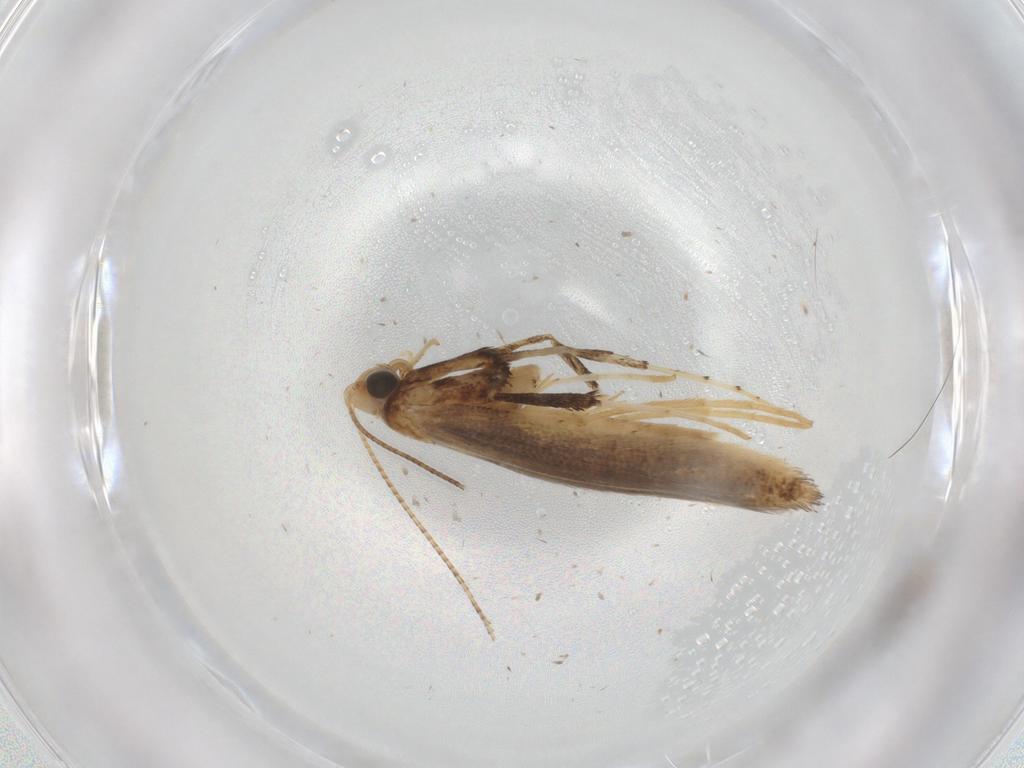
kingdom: Animalia
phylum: Arthropoda
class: Insecta
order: Lepidoptera
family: Gracillariidae
